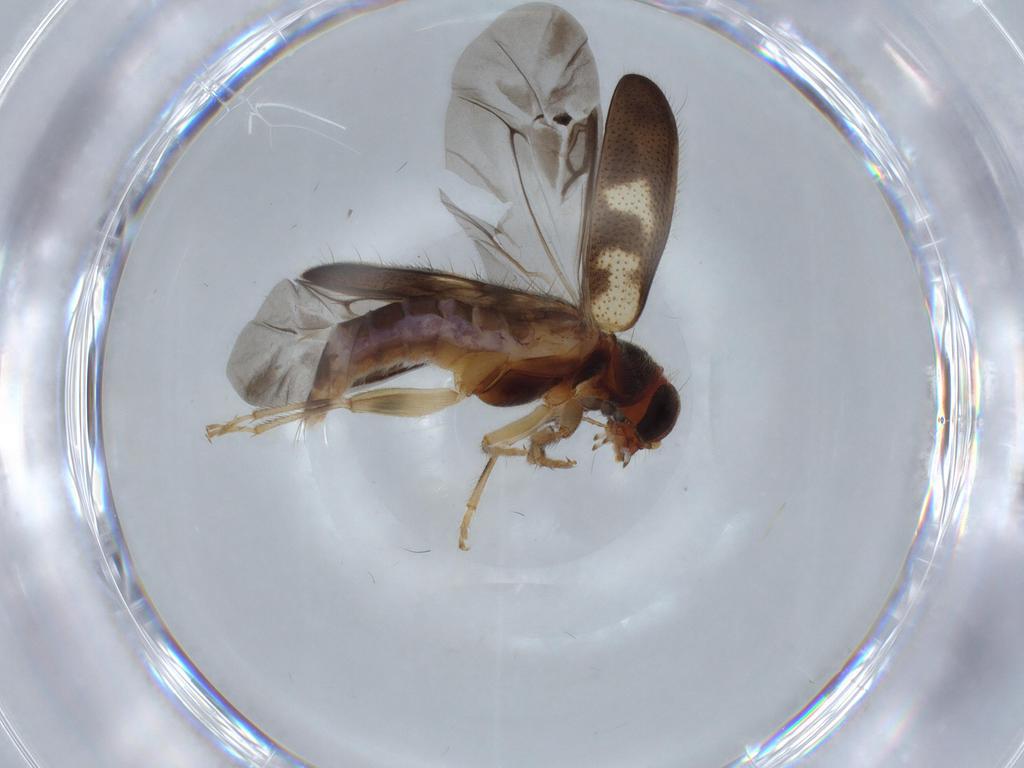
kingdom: Animalia
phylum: Arthropoda
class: Insecta
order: Coleoptera
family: Cleridae
